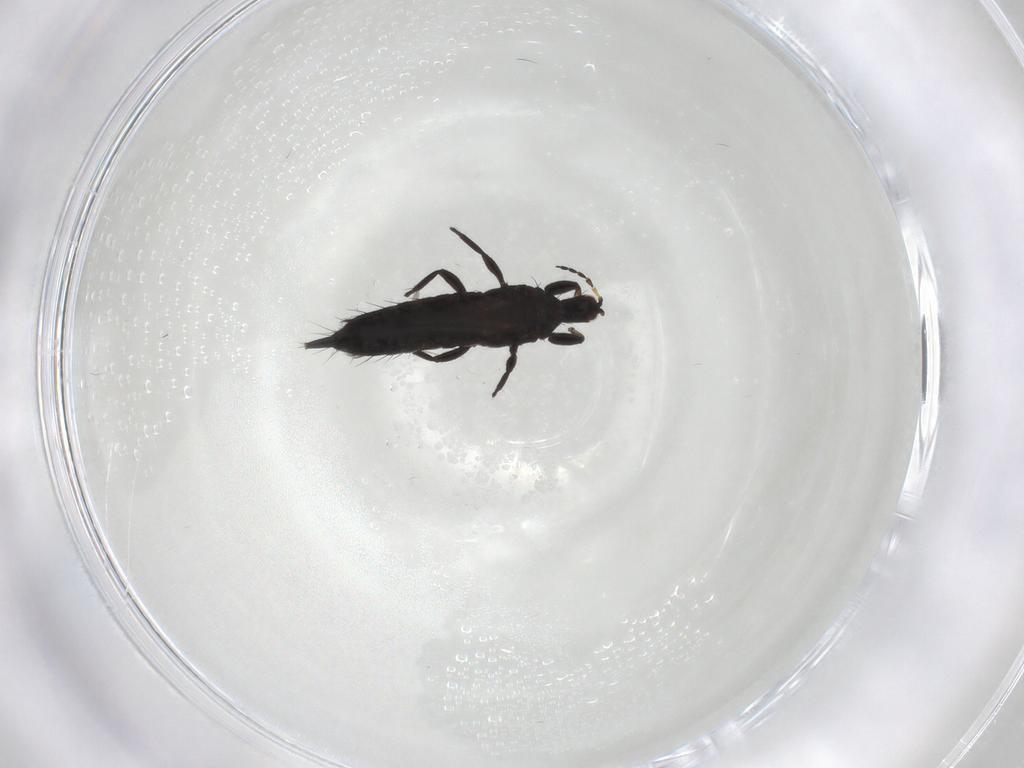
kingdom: Animalia
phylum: Arthropoda
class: Insecta
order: Thysanoptera
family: Phlaeothripidae
